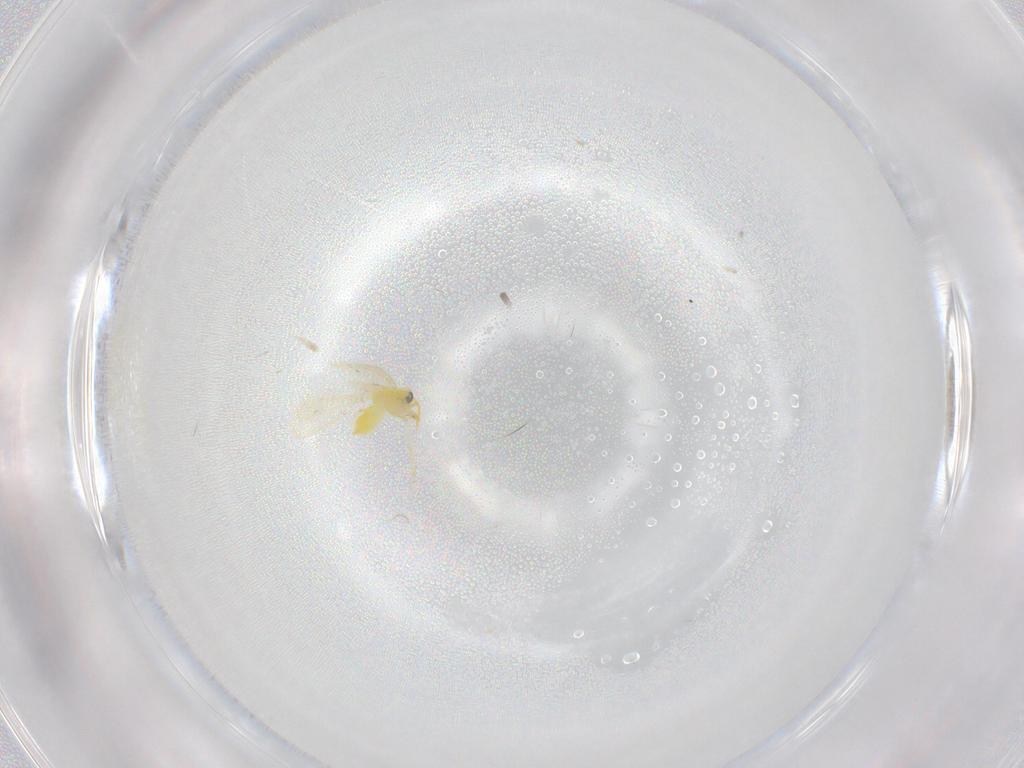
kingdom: Animalia
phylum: Arthropoda
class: Insecta
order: Hemiptera
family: Aleyrodidae
